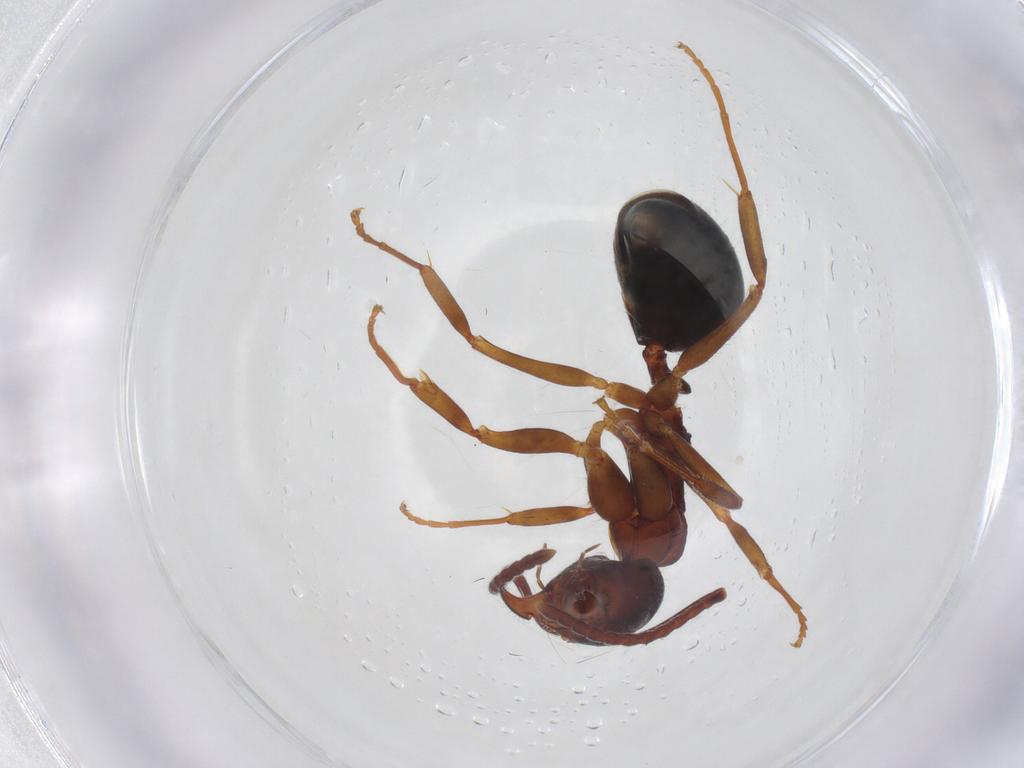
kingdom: Animalia
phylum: Arthropoda
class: Insecta
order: Hymenoptera
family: Formicidae
